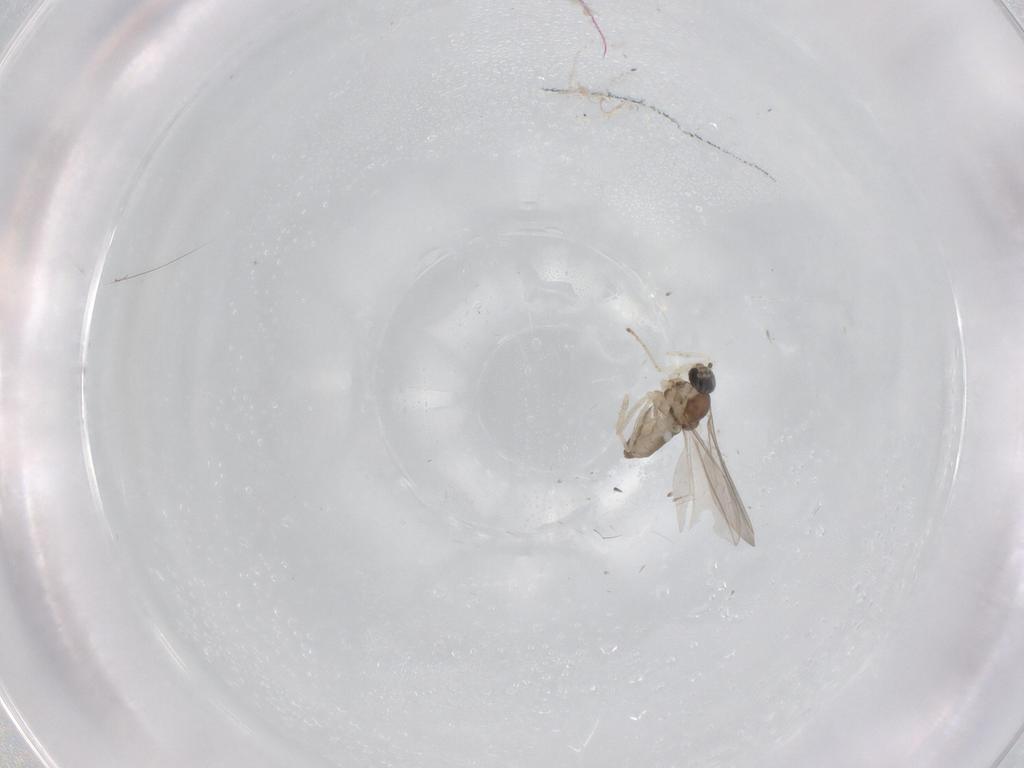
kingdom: Animalia
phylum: Arthropoda
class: Insecta
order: Diptera
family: Cecidomyiidae
